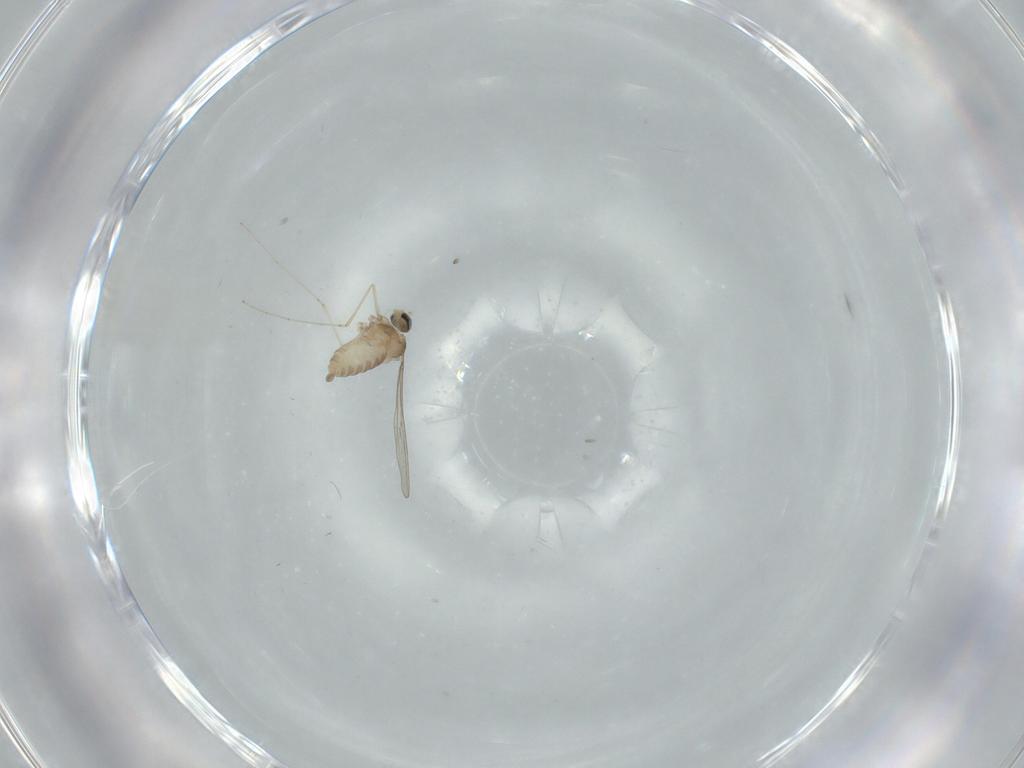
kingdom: Animalia
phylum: Arthropoda
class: Insecta
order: Diptera
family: Cecidomyiidae
